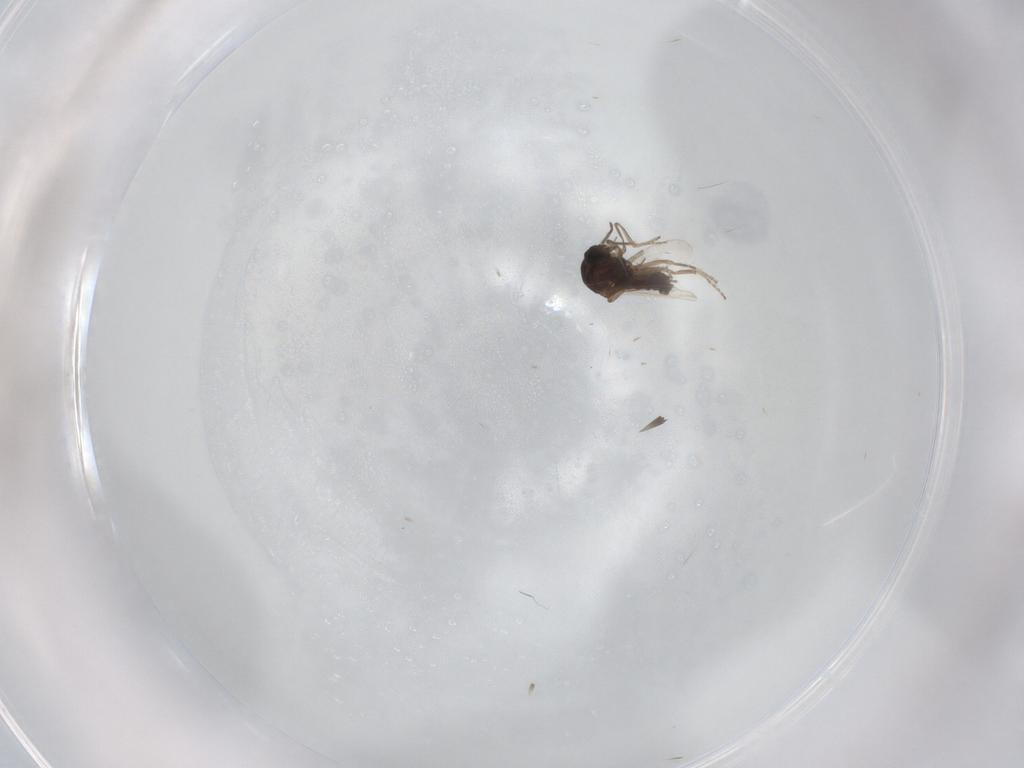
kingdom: Animalia
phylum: Arthropoda
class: Insecta
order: Diptera
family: Ceratopogonidae
